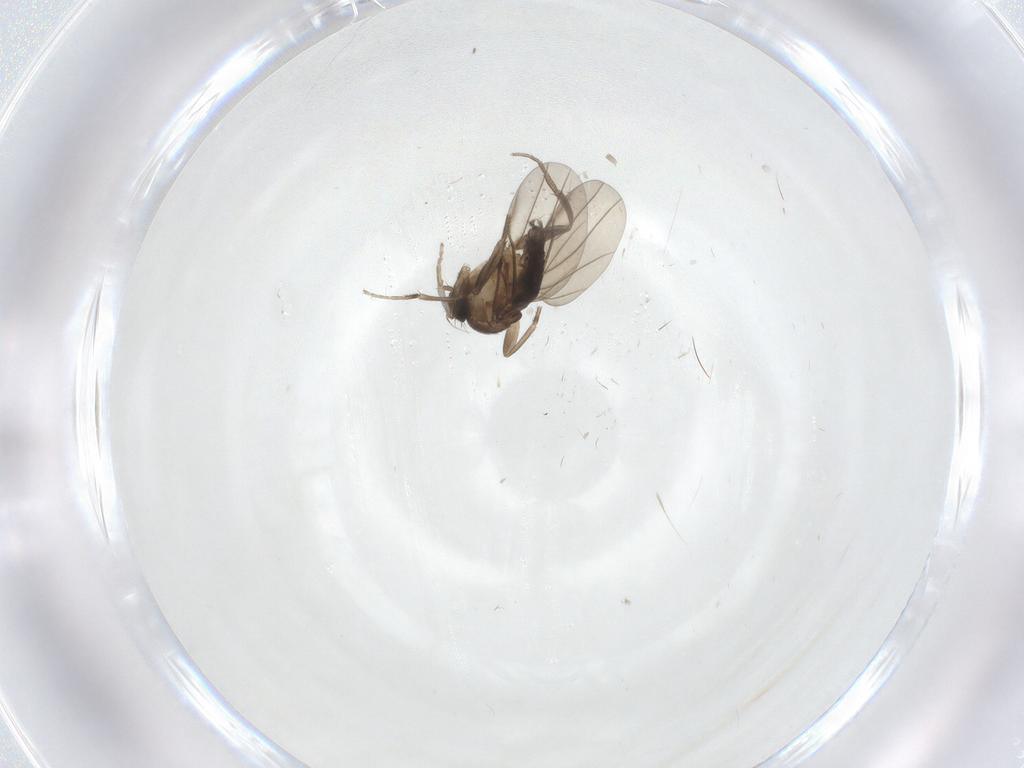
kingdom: Animalia
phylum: Arthropoda
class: Insecta
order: Diptera
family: Phoridae
